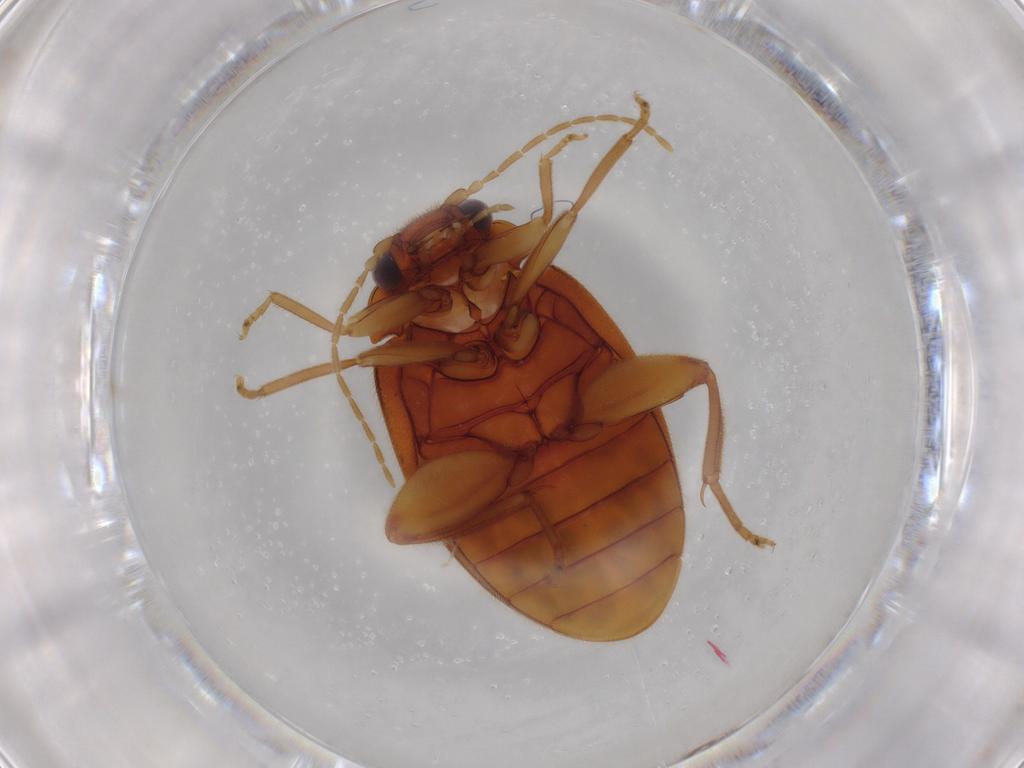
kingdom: Animalia
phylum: Arthropoda
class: Insecta
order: Coleoptera
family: Scirtidae
